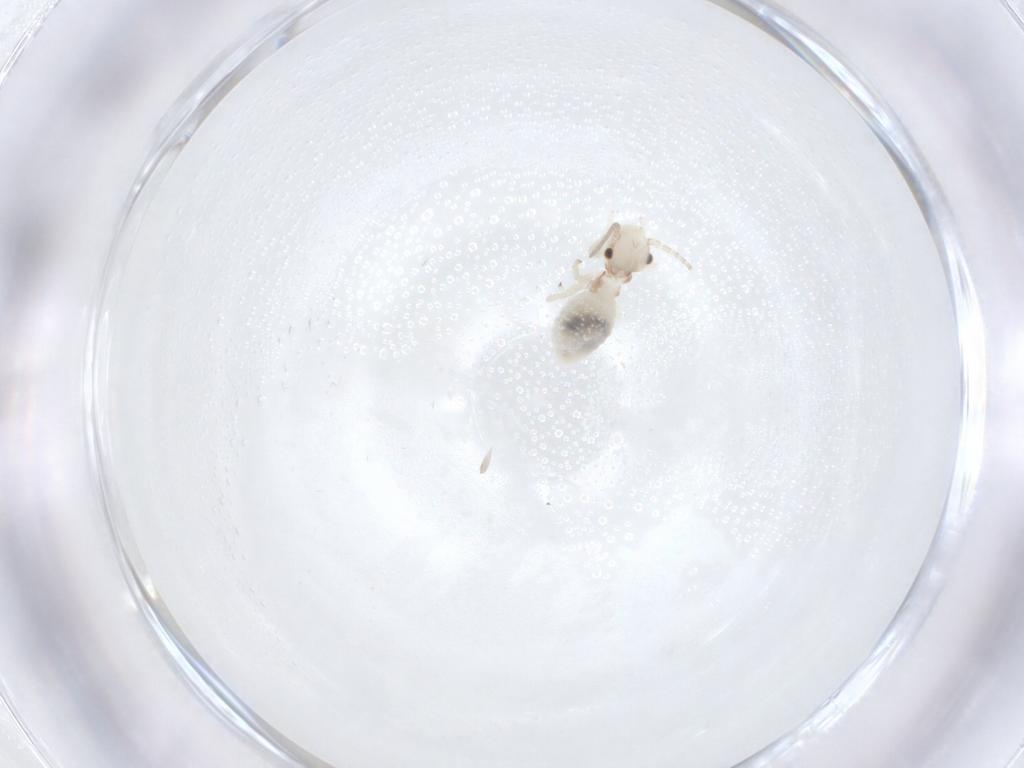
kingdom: Animalia
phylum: Arthropoda
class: Insecta
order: Psocodea
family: Amphipsocidae
